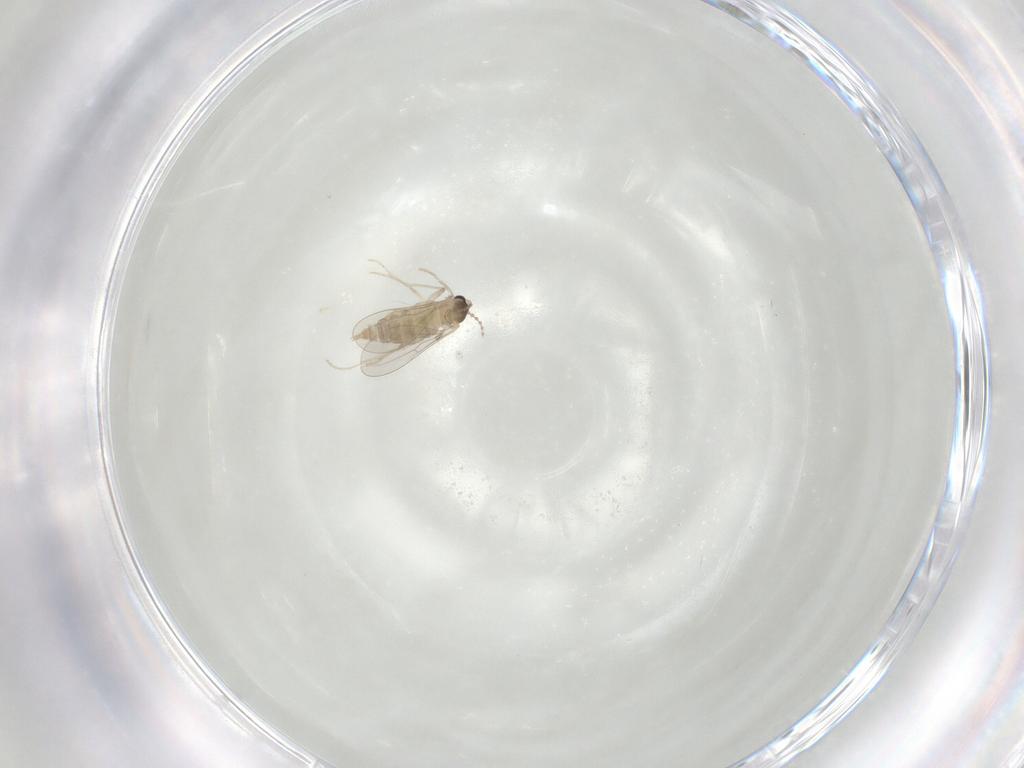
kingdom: Animalia
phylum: Arthropoda
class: Insecta
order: Diptera
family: Cecidomyiidae
